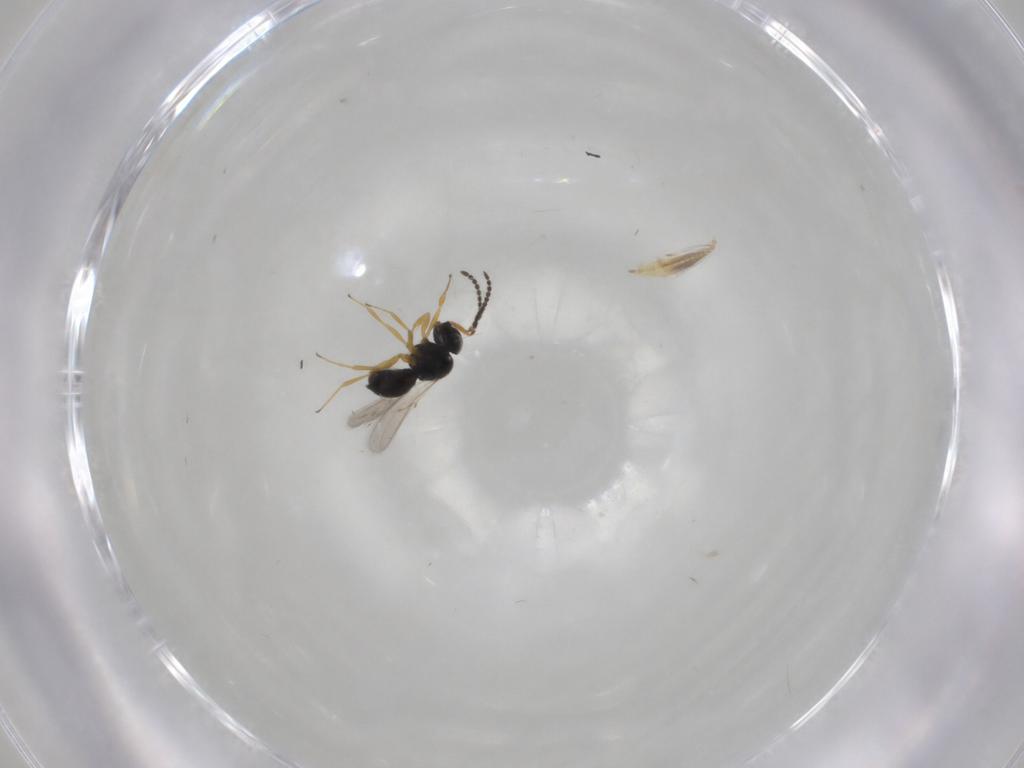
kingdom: Animalia
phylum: Arthropoda
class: Insecta
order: Hymenoptera
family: Scelionidae
